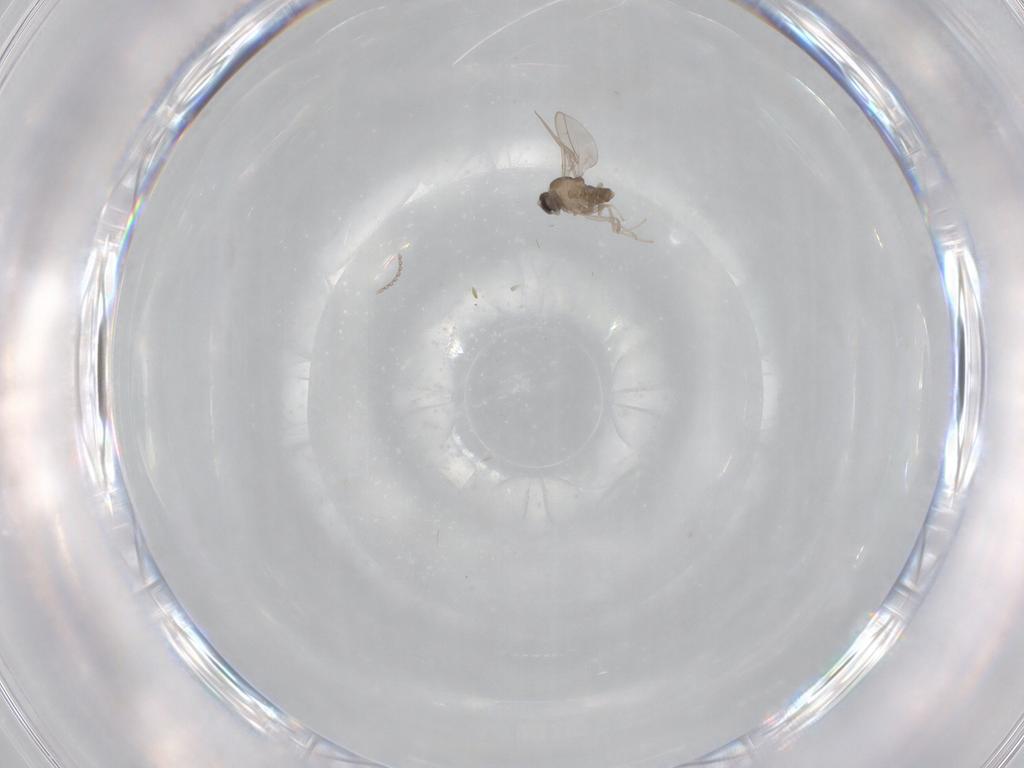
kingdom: Animalia
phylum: Arthropoda
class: Insecta
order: Diptera
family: Cecidomyiidae
